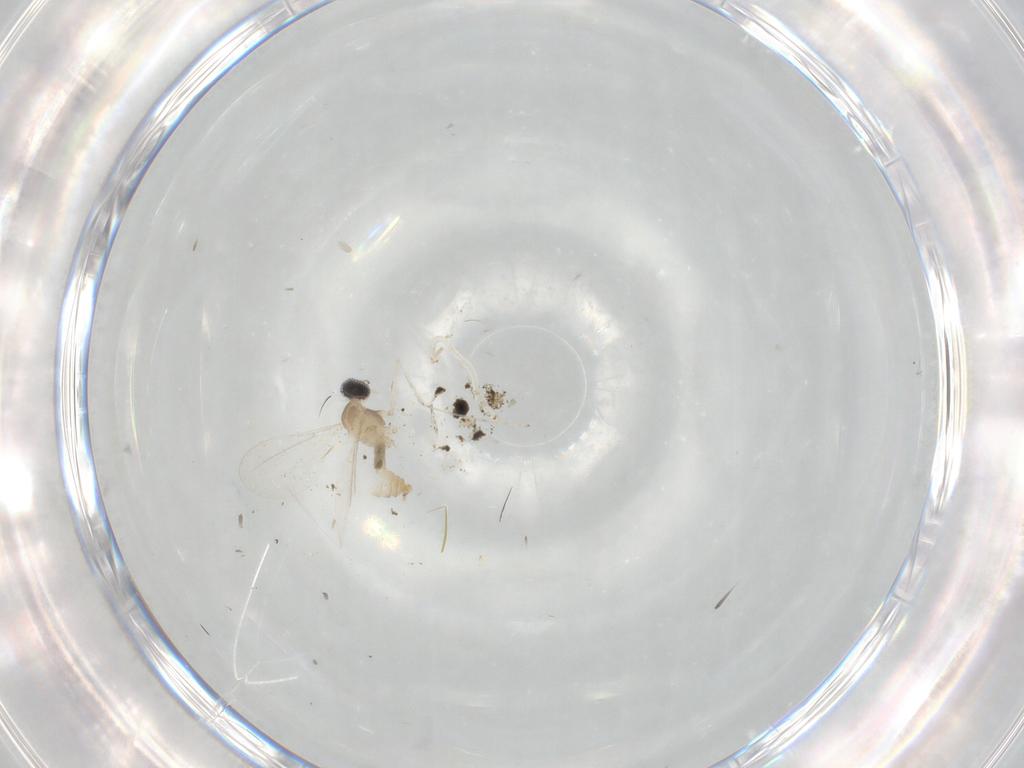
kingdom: Animalia
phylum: Arthropoda
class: Insecta
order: Diptera
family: Cecidomyiidae
